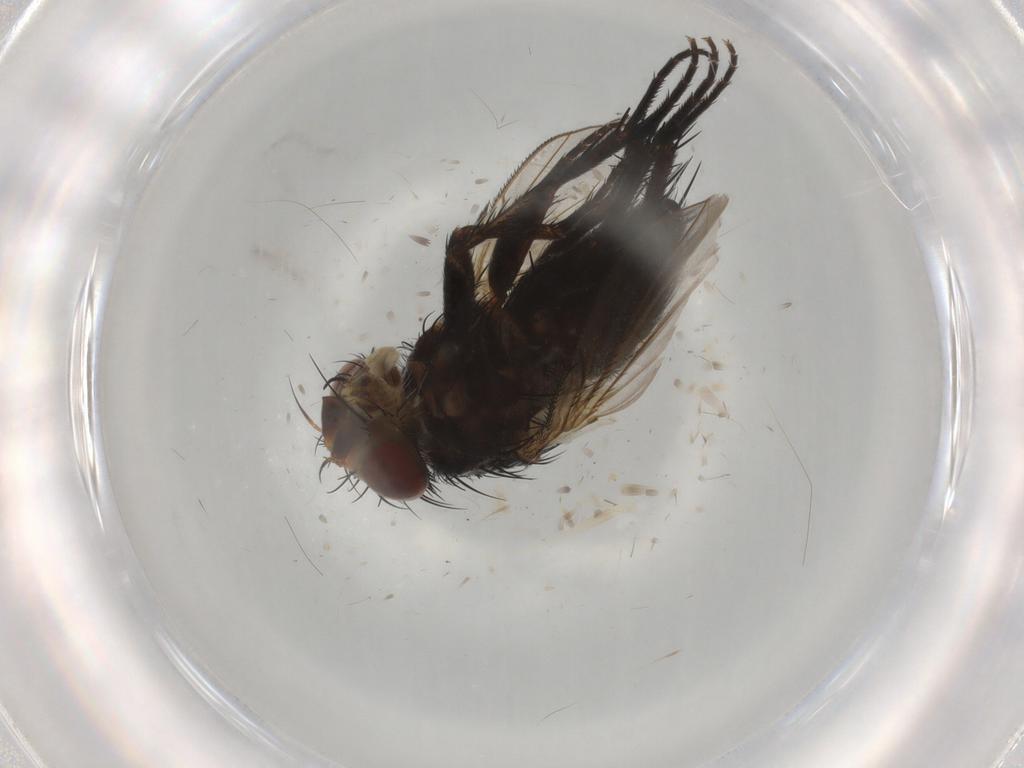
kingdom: Animalia
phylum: Arthropoda
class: Insecta
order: Diptera
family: Tachinidae
